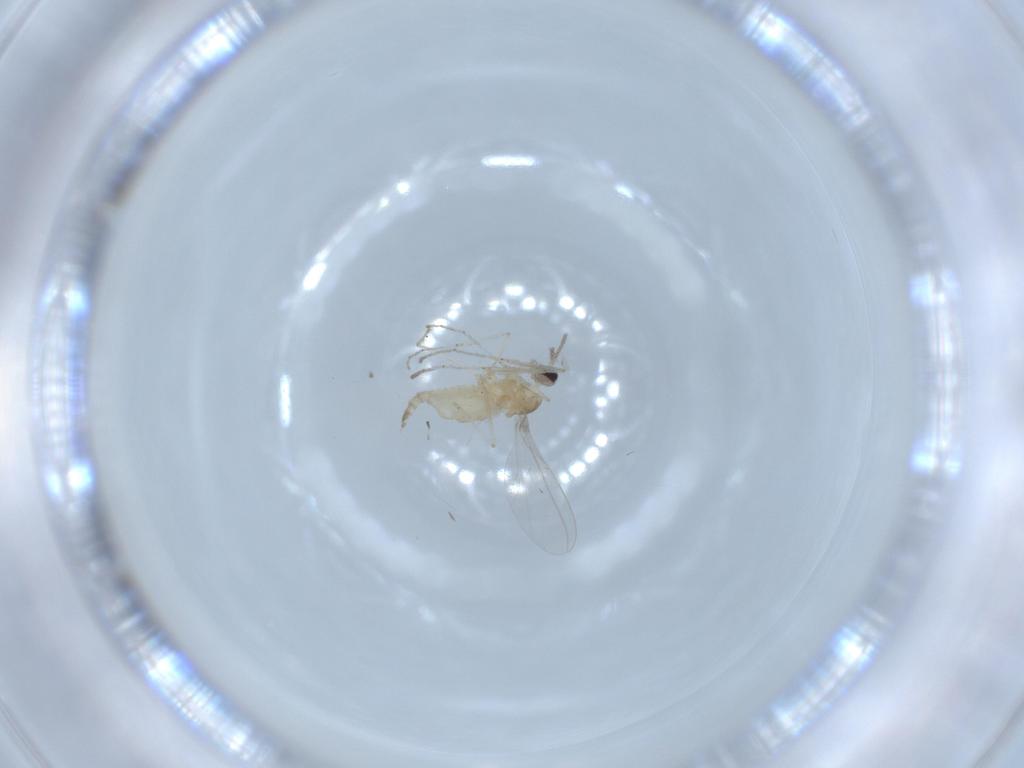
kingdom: Animalia
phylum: Arthropoda
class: Insecta
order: Diptera
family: Cecidomyiidae
